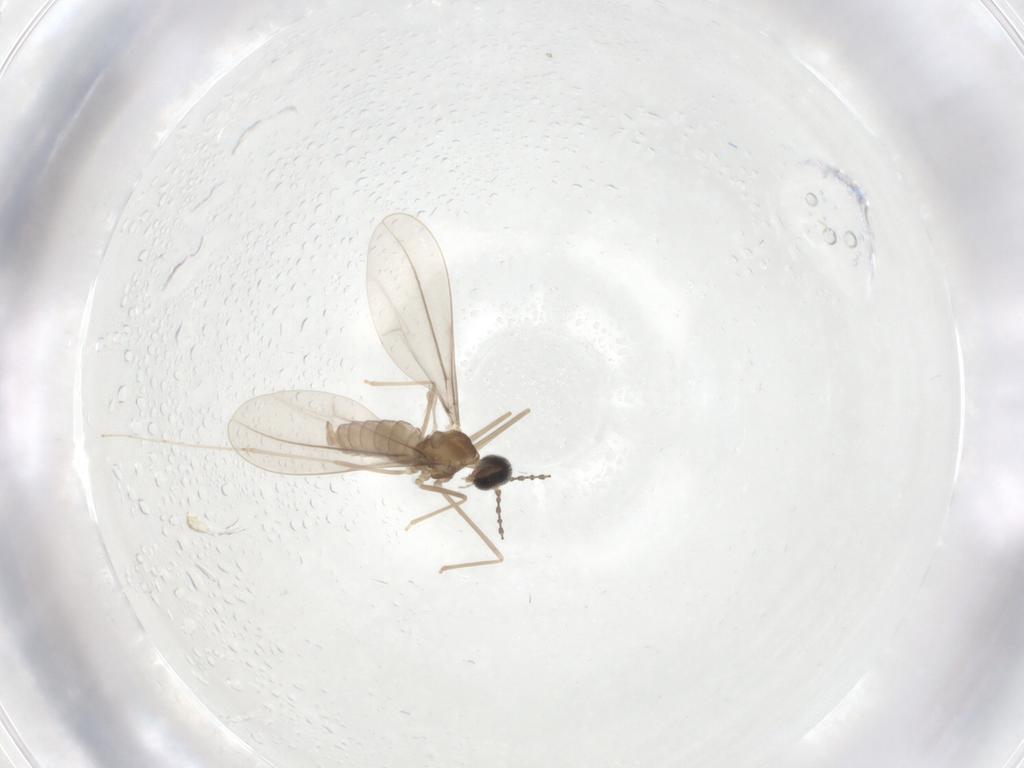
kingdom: Animalia
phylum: Arthropoda
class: Insecta
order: Diptera
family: Cecidomyiidae
